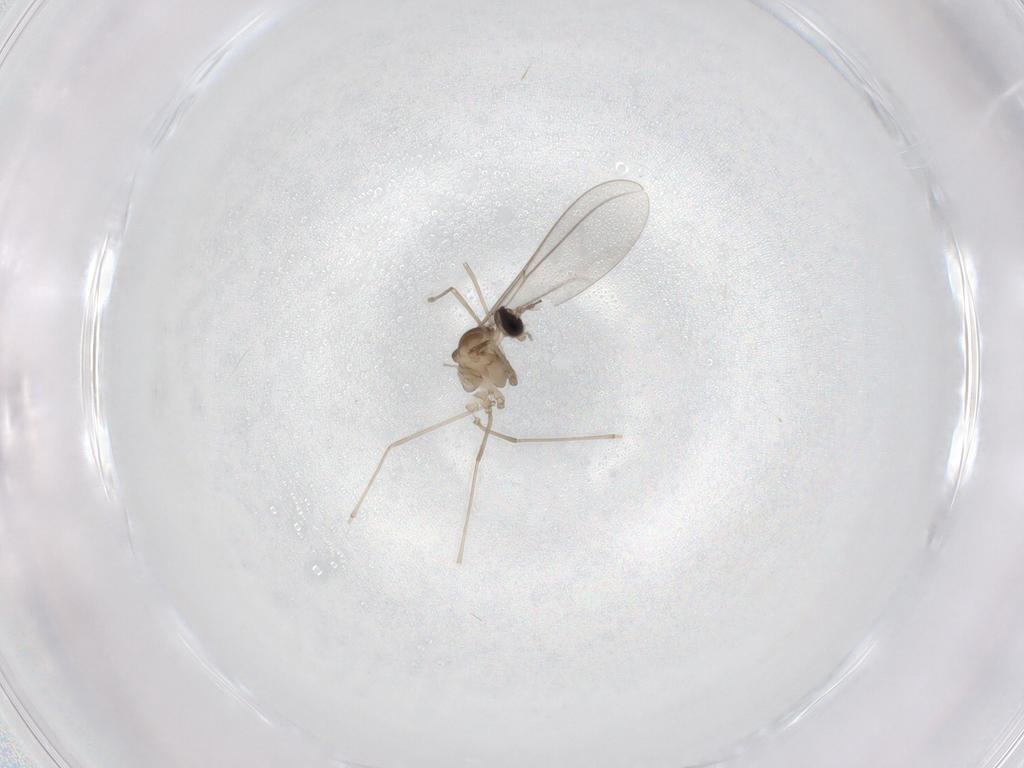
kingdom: Animalia
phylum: Arthropoda
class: Insecta
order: Diptera
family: Cecidomyiidae
